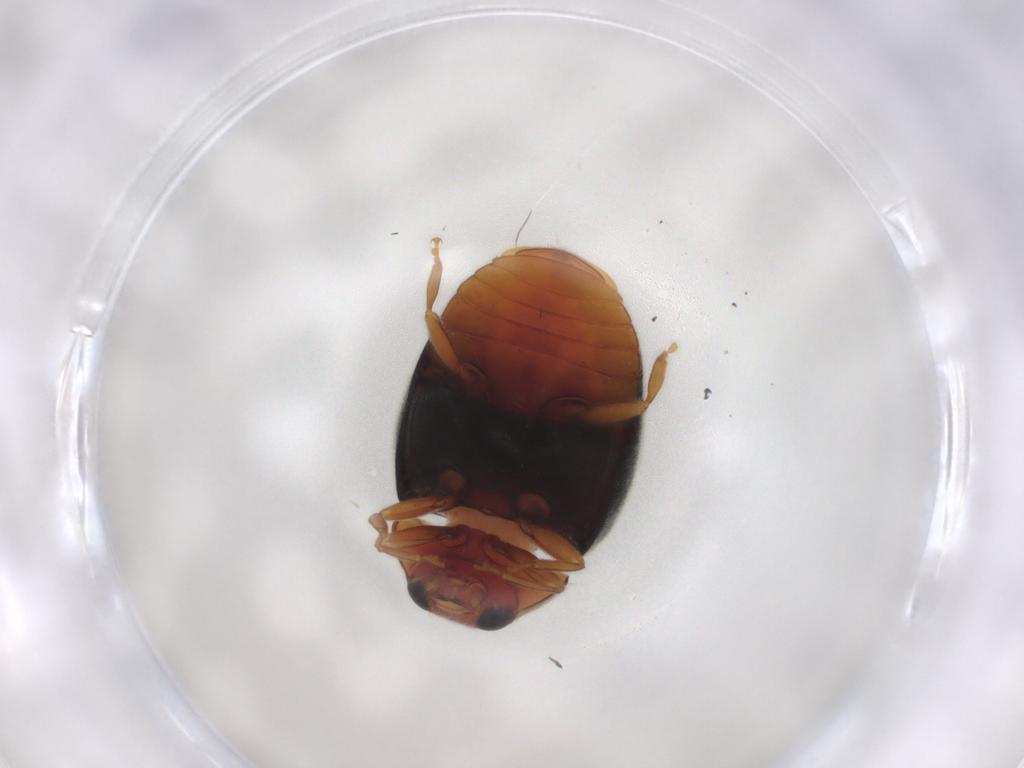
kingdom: Animalia
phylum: Arthropoda
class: Insecta
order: Coleoptera
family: Coccinellidae
